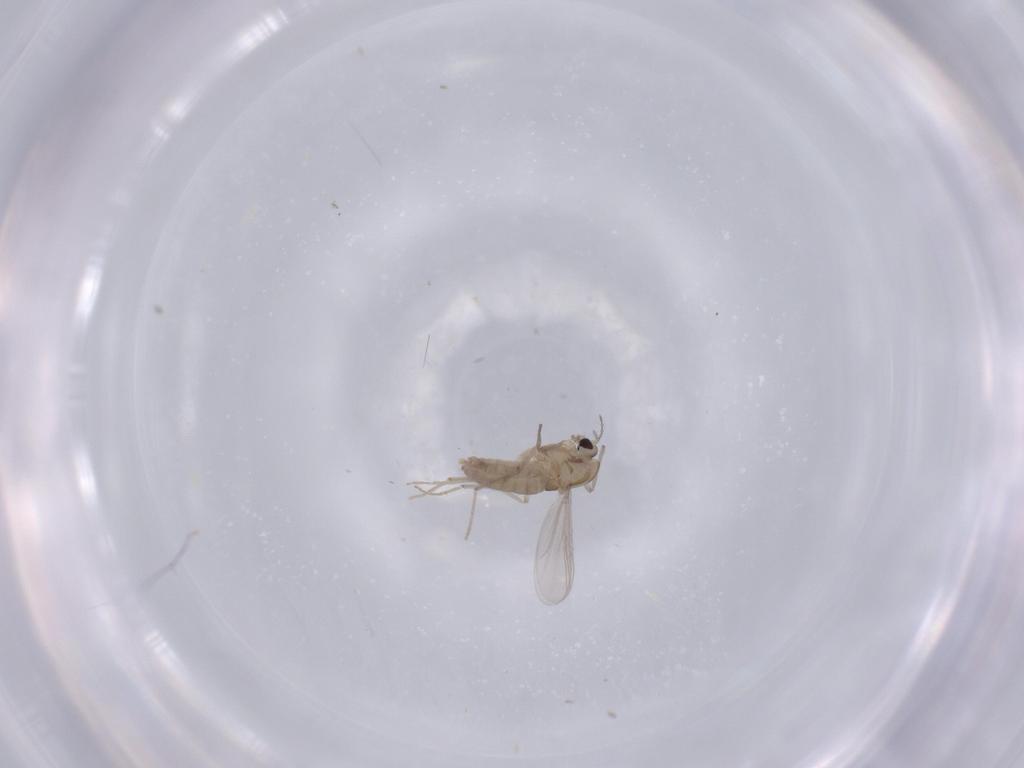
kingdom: Animalia
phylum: Arthropoda
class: Insecta
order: Diptera
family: Chironomidae
